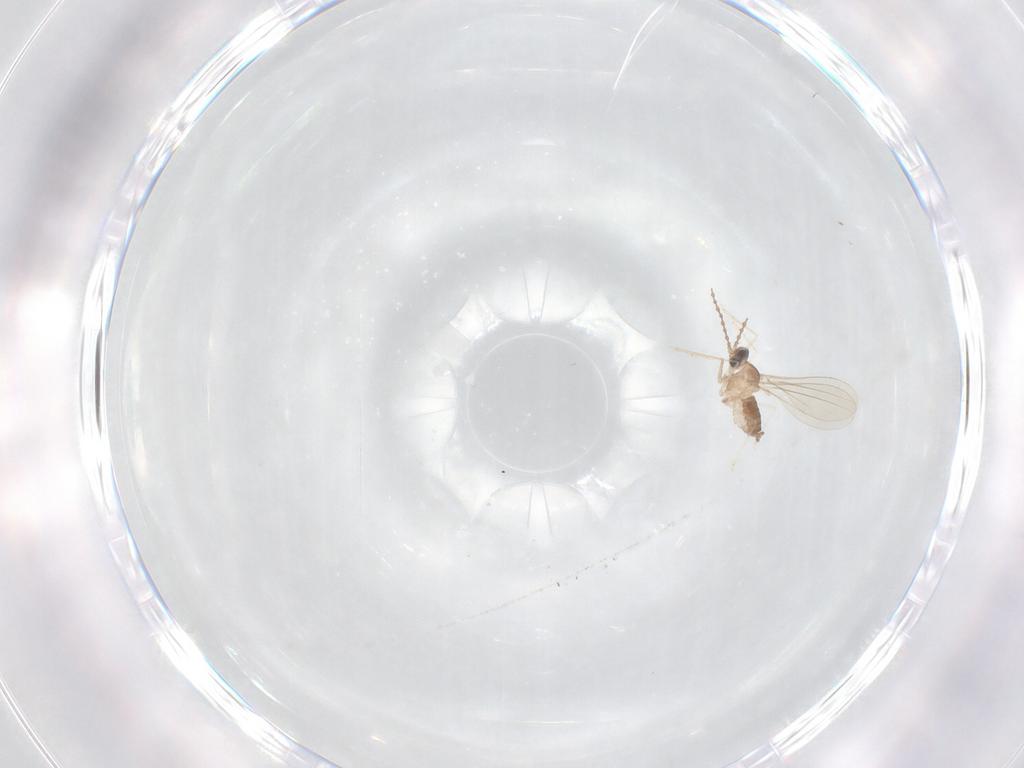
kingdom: Animalia
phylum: Arthropoda
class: Insecta
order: Diptera
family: Cecidomyiidae
